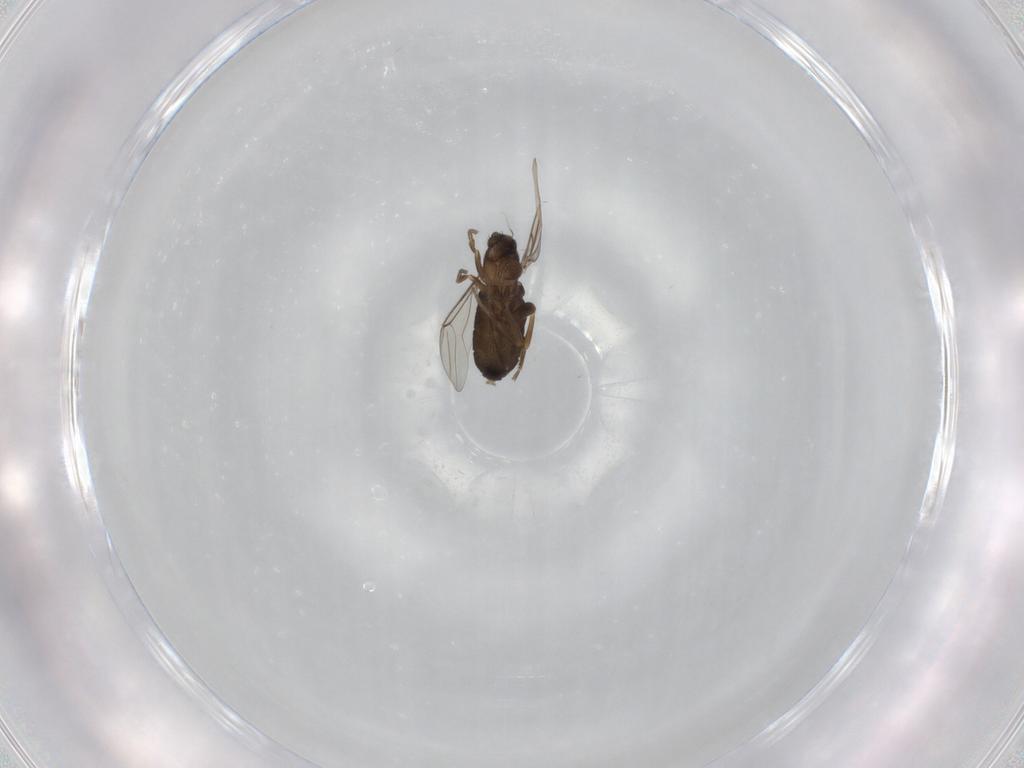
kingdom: Animalia
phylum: Arthropoda
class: Insecta
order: Diptera
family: Phoridae
